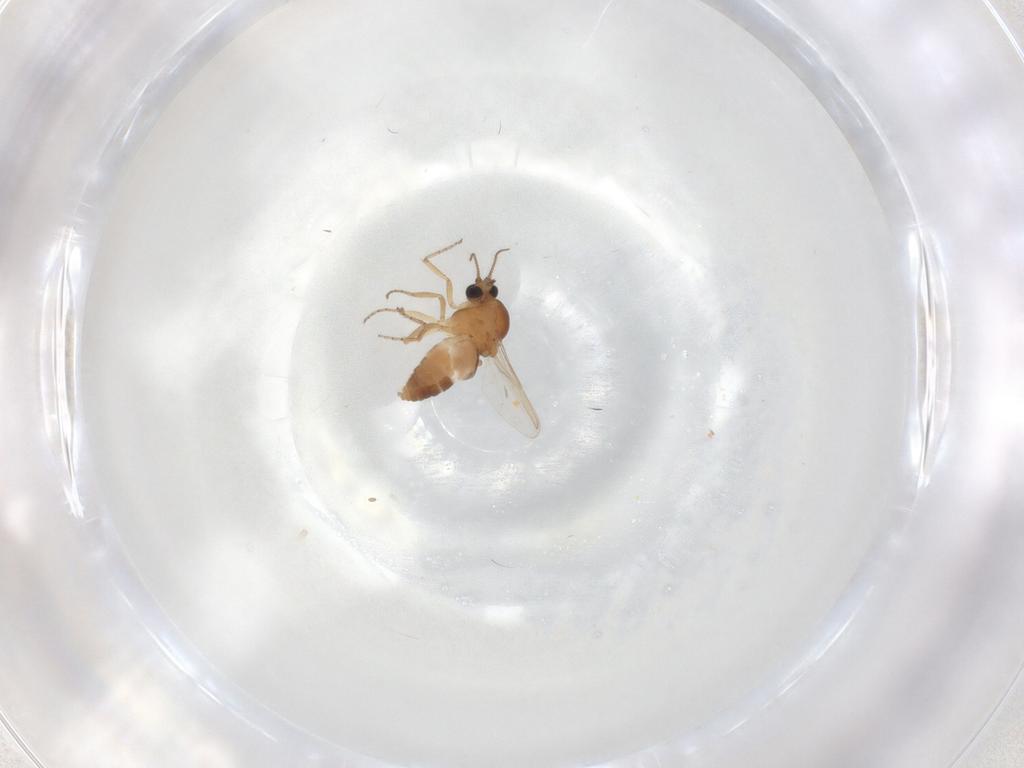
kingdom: Animalia
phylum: Arthropoda
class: Insecta
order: Diptera
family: Ceratopogonidae
